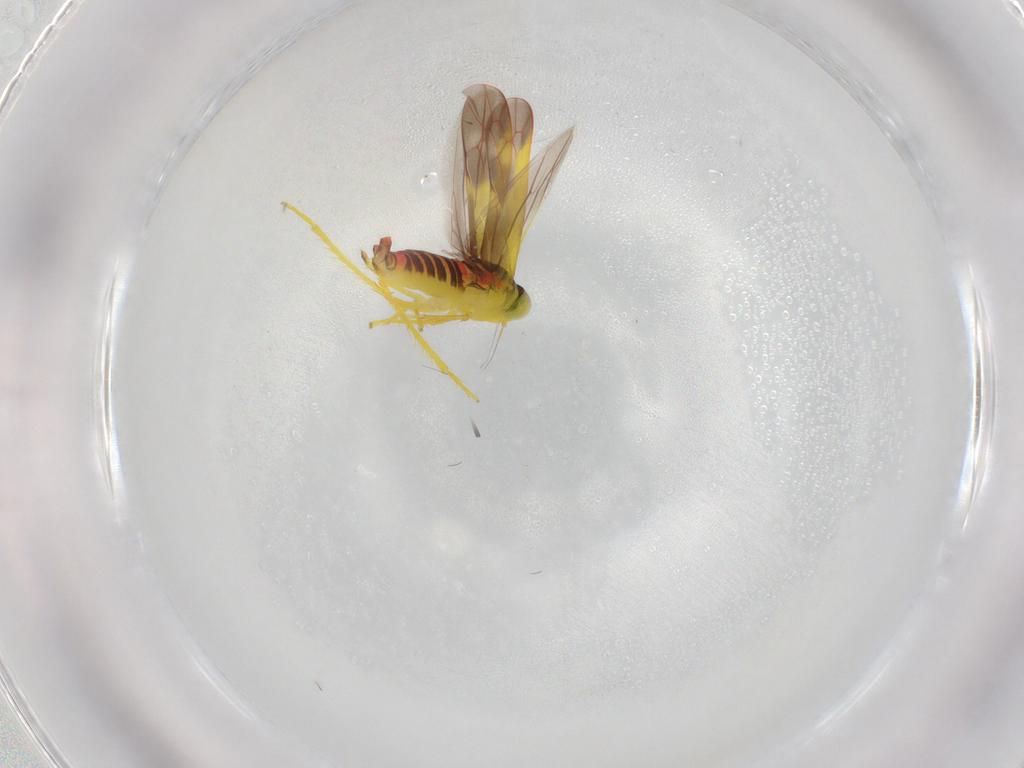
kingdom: Animalia
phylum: Arthropoda
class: Insecta
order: Hemiptera
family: Cicadellidae
